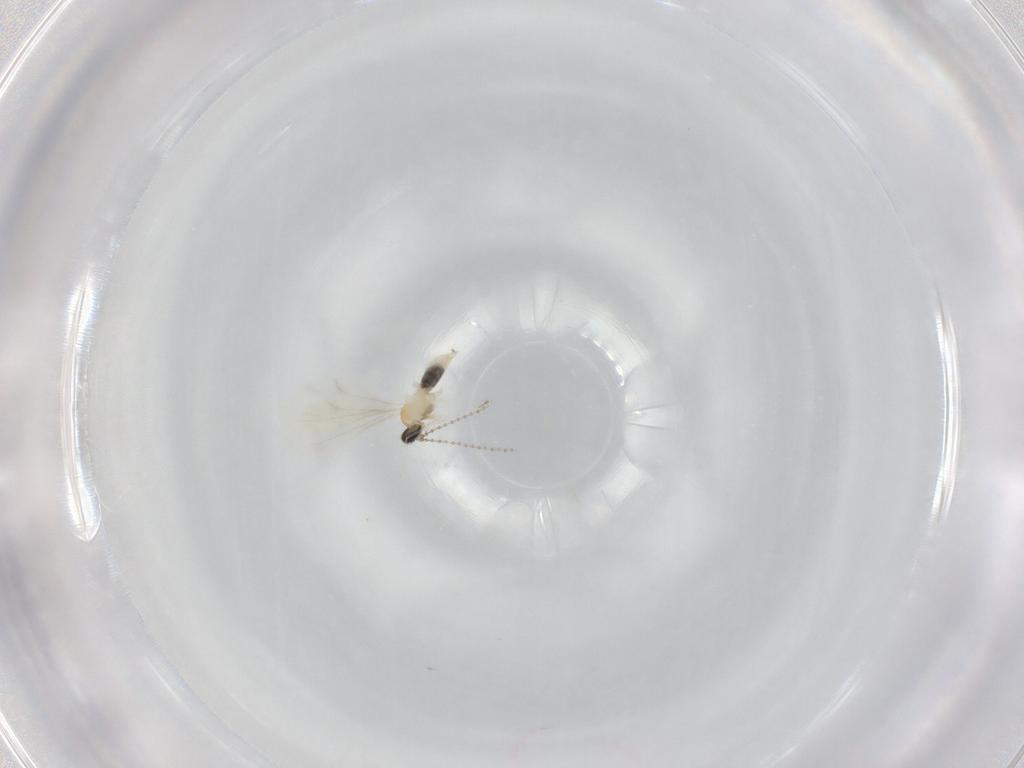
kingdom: Animalia
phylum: Arthropoda
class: Insecta
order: Diptera
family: Cecidomyiidae
